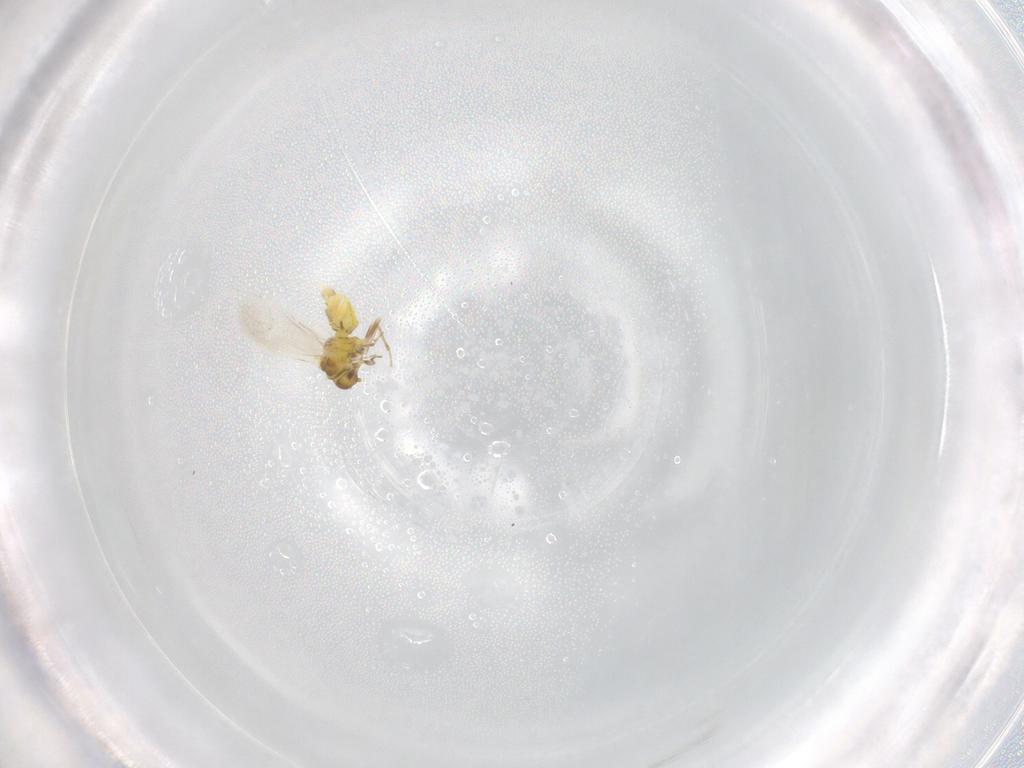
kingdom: Animalia
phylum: Arthropoda
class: Insecta
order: Hemiptera
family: Aleyrodidae
